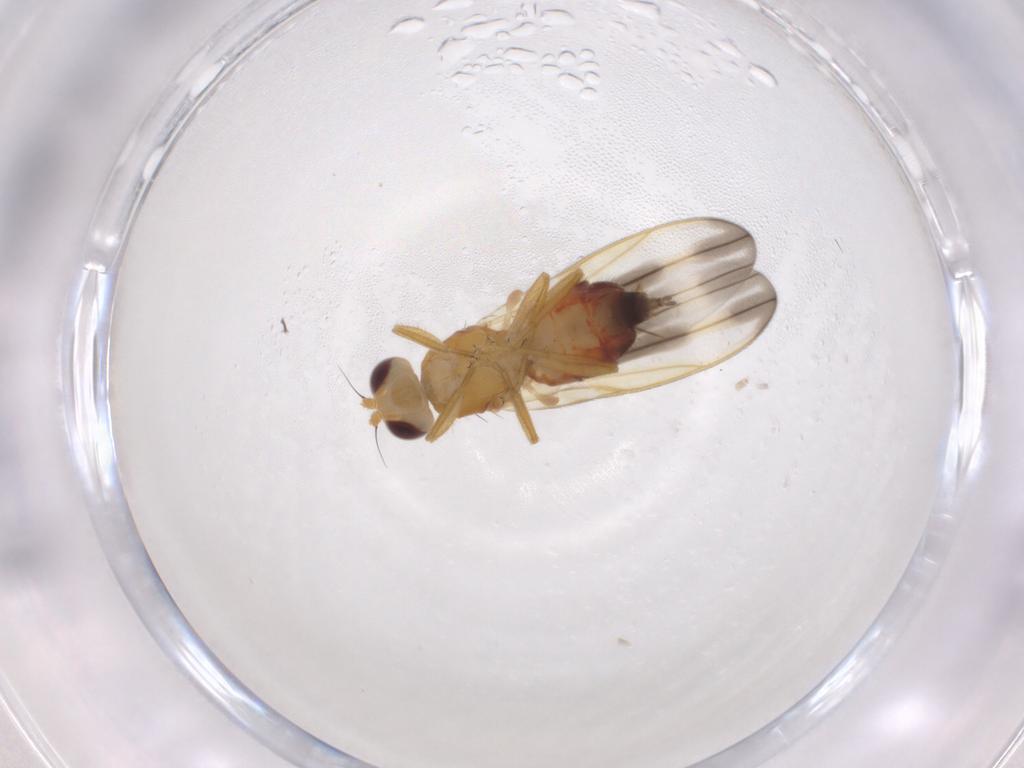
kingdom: Animalia
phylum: Arthropoda
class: Insecta
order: Diptera
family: Neurochaetidae
